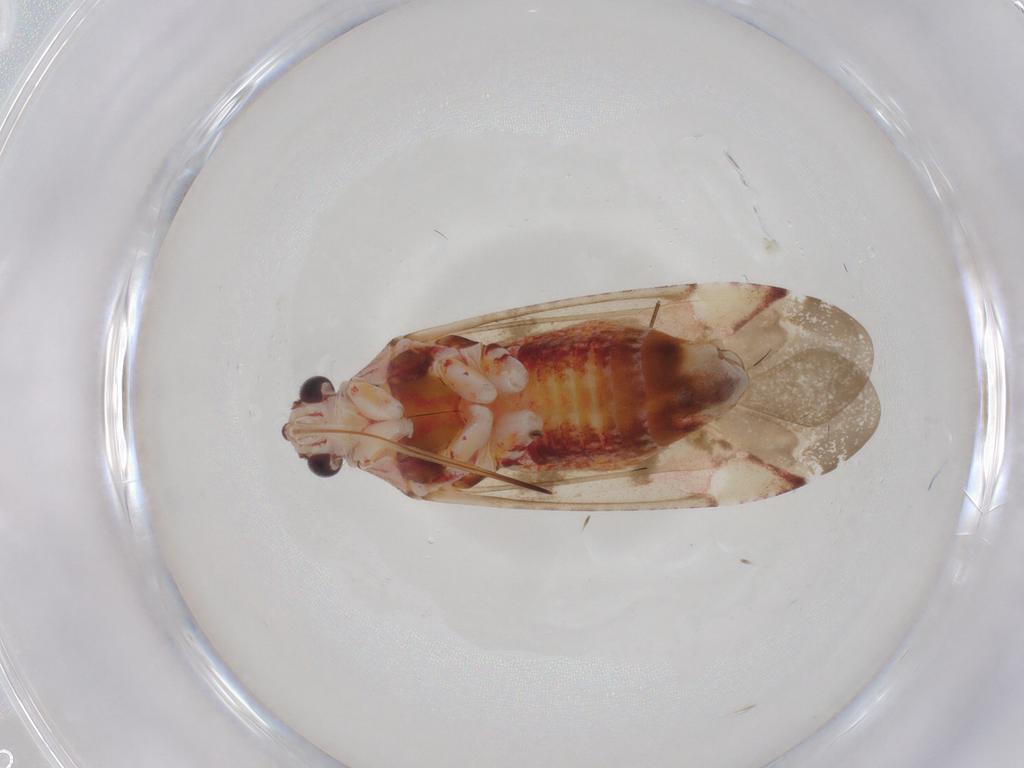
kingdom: Animalia
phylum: Arthropoda
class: Insecta
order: Hemiptera
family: Miridae
